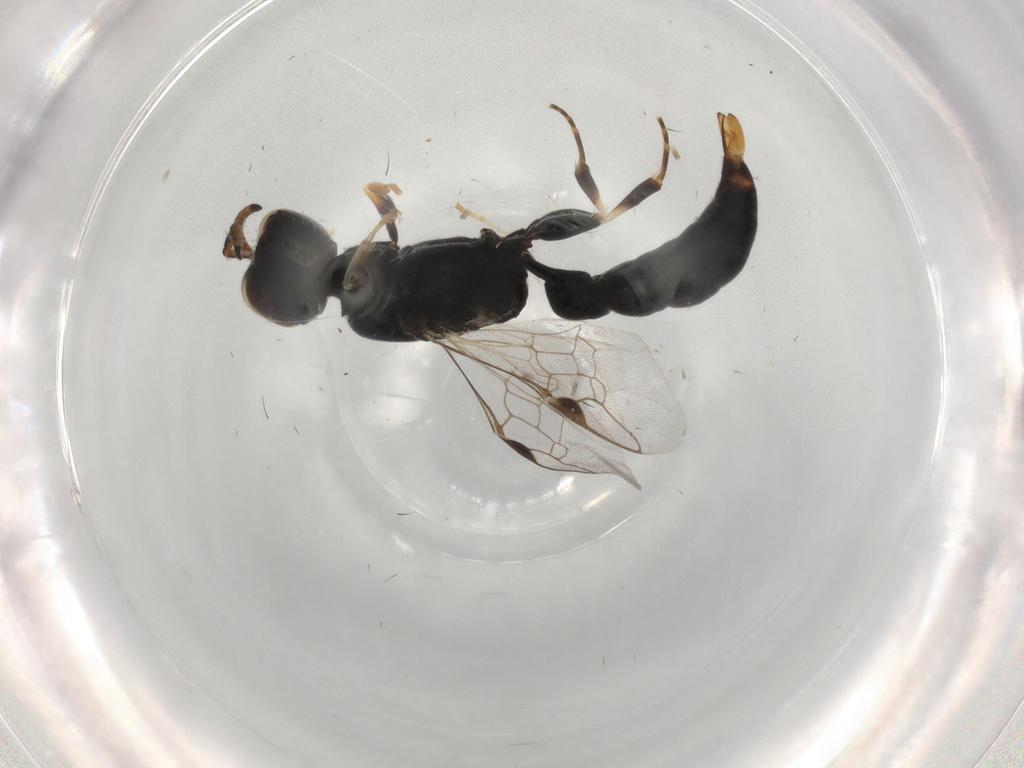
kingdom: Animalia
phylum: Arthropoda
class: Insecta
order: Hymenoptera
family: Pemphredonidae
